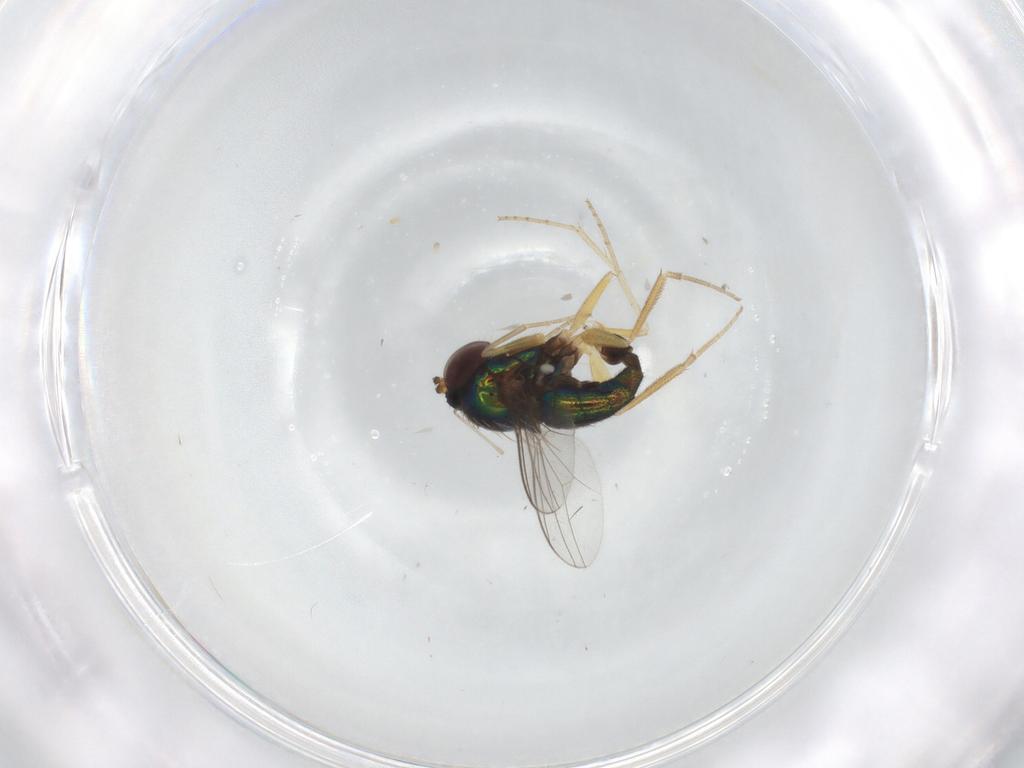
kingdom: Animalia
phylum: Arthropoda
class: Insecta
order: Diptera
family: Dolichopodidae
